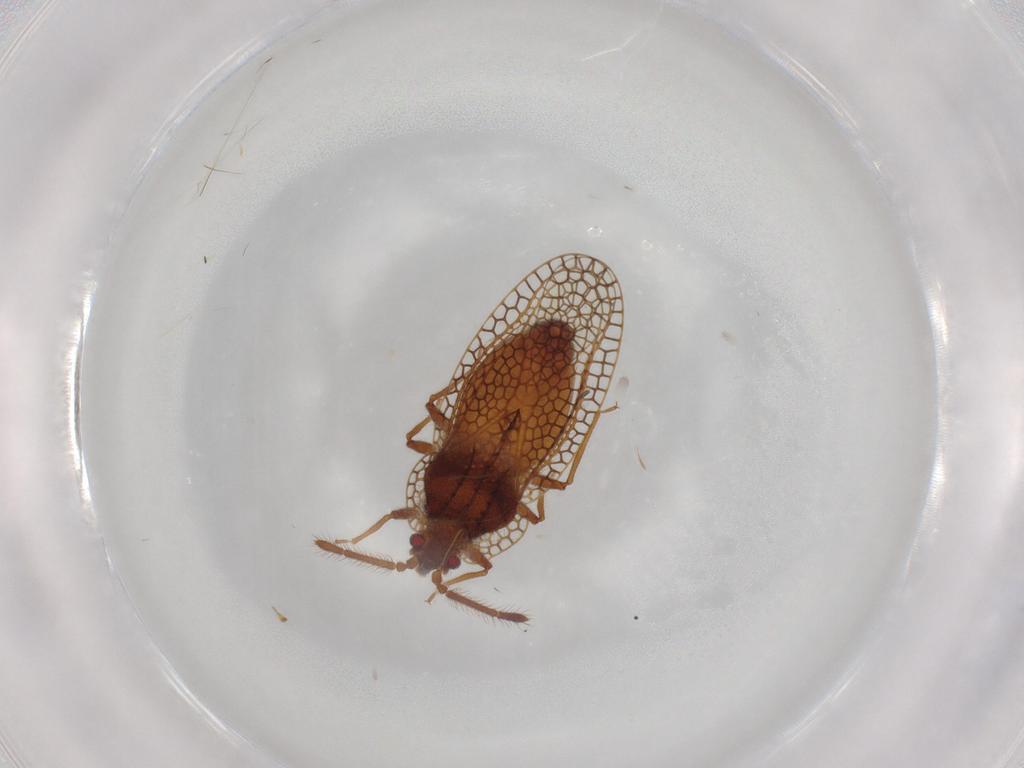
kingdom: Animalia
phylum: Arthropoda
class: Insecta
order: Hemiptera
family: Tingidae
